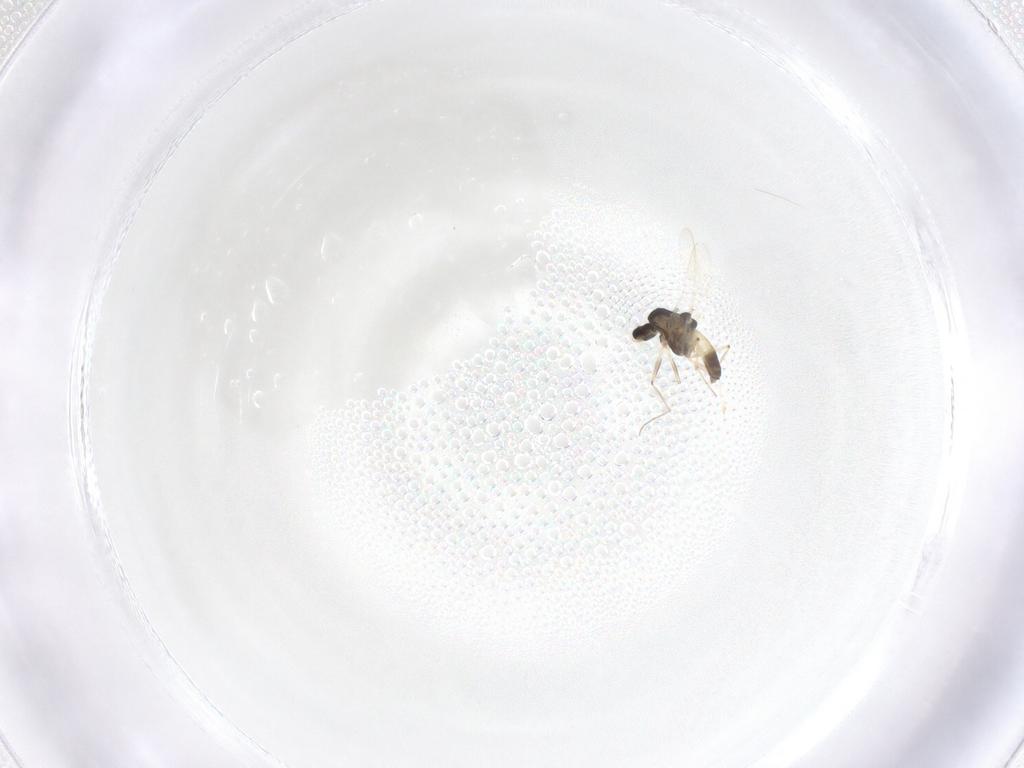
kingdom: Animalia
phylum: Arthropoda
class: Insecta
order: Diptera
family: Chironomidae
